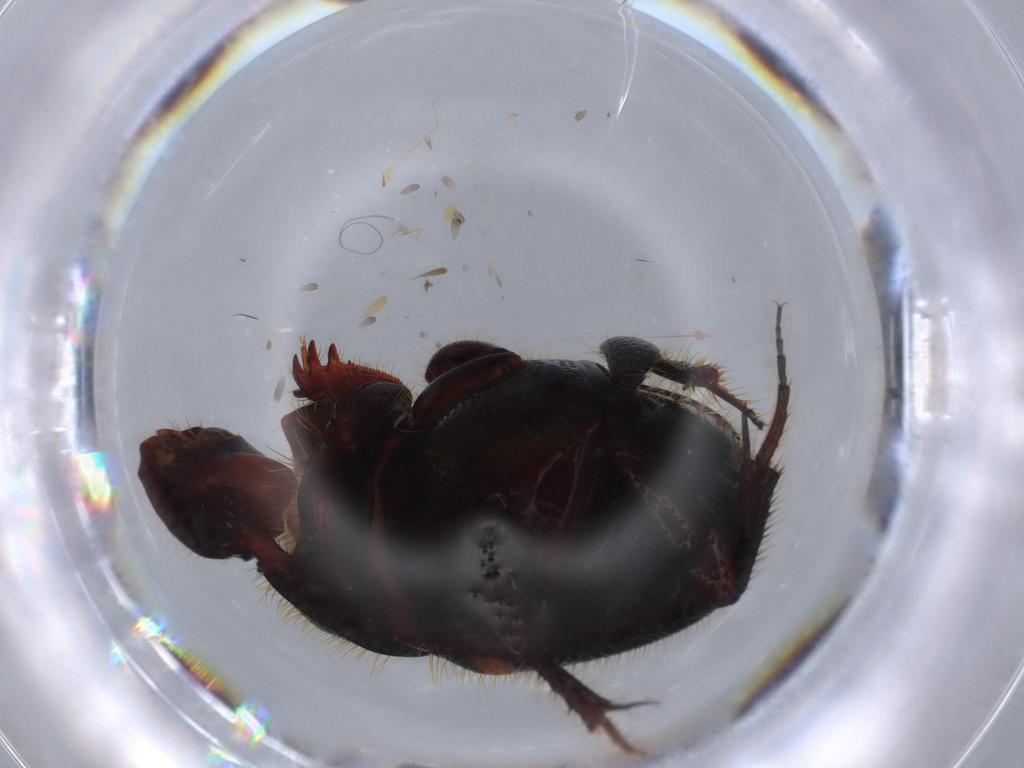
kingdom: Animalia
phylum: Arthropoda
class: Insecta
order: Coleoptera
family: Scarabaeidae
